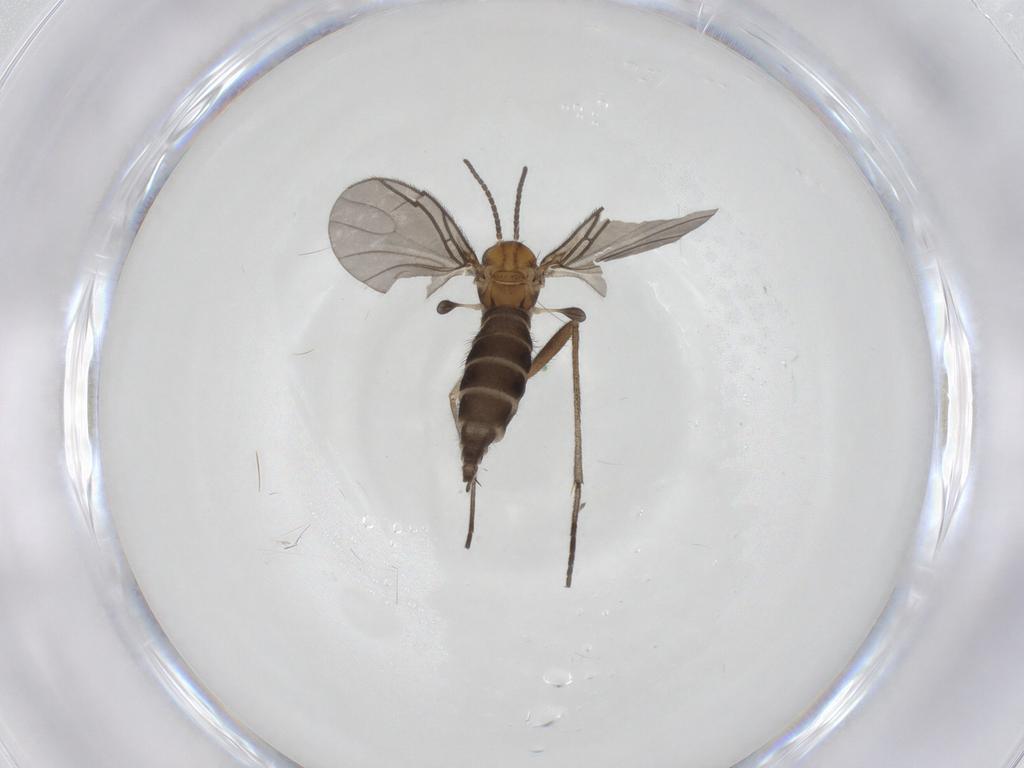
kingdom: Animalia
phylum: Arthropoda
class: Insecta
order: Diptera
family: Sciaridae
